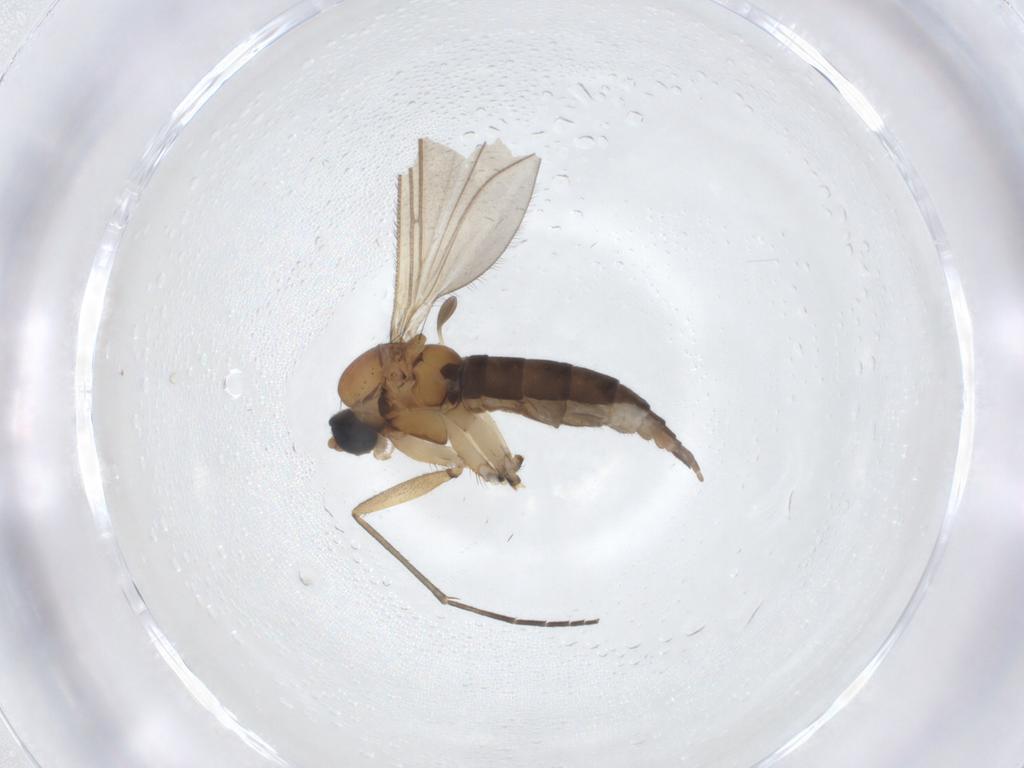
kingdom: Animalia
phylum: Arthropoda
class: Insecta
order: Diptera
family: Sciaridae
